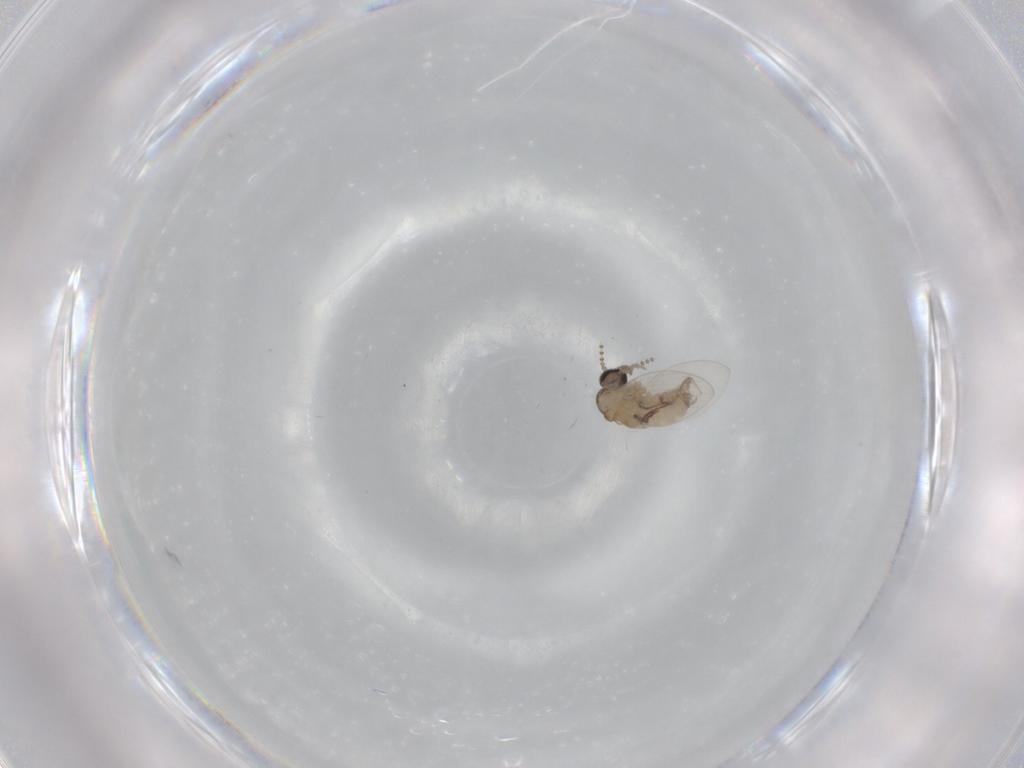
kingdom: Animalia
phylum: Arthropoda
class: Insecta
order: Diptera
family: Psychodidae
